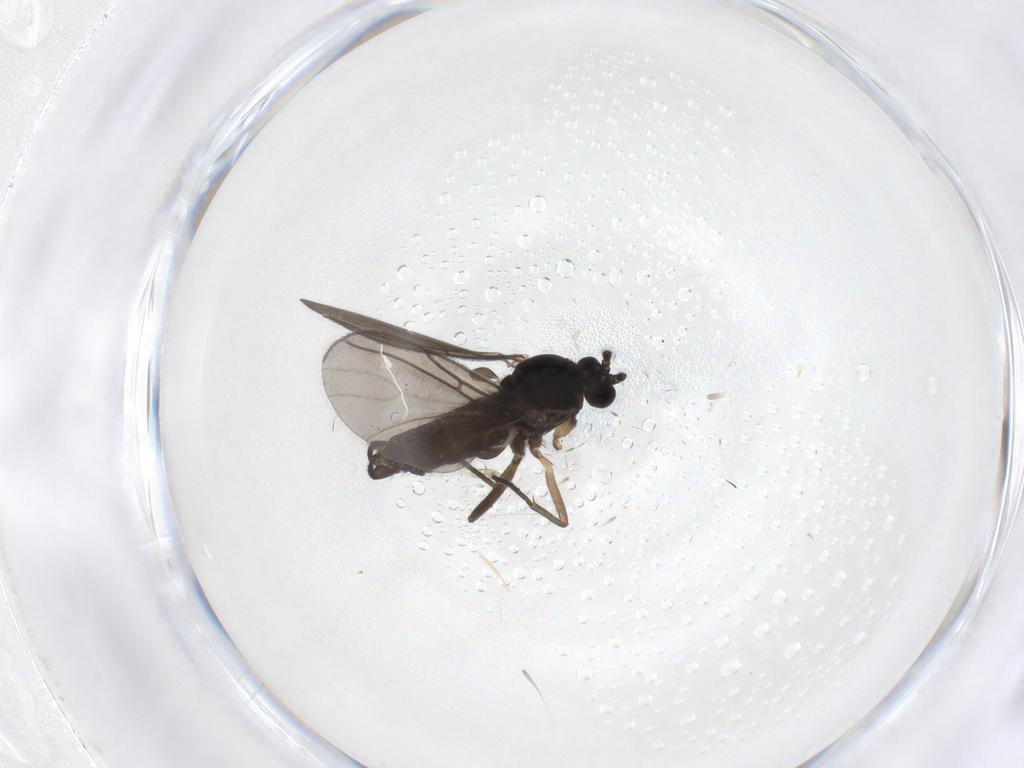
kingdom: Animalia
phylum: Arthropoda
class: Insecta
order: Diptera
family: Sciaridae
